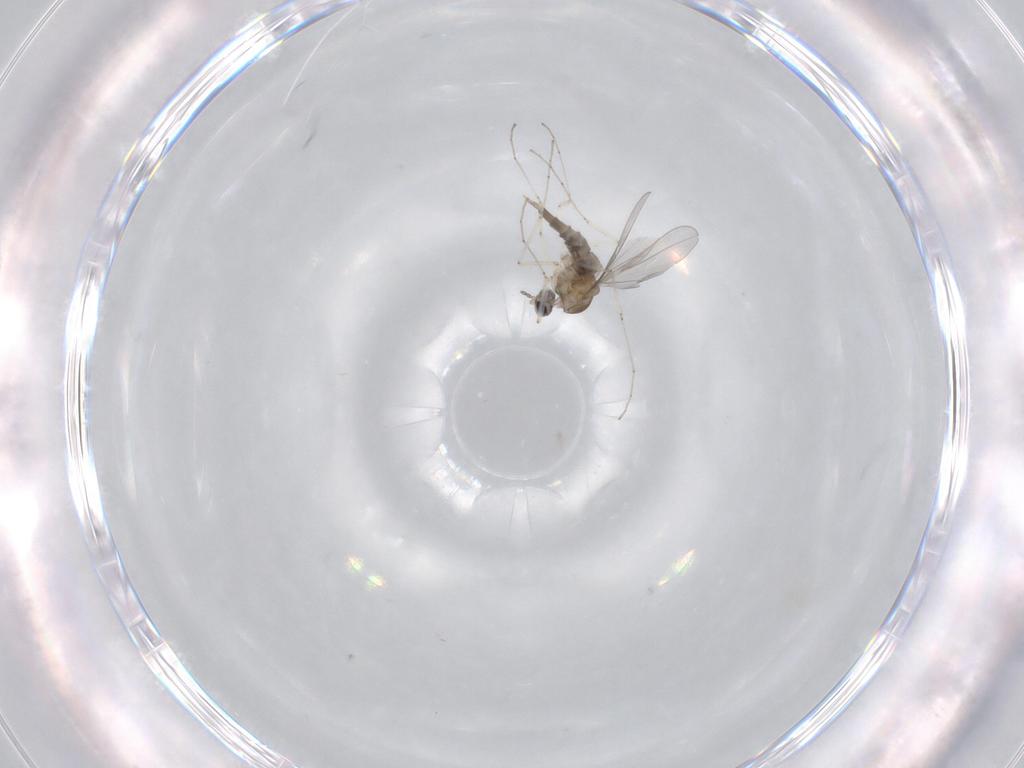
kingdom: Animalia
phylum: Arthropoda
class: Insecta
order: Diptera
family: Cecidomyiidae
